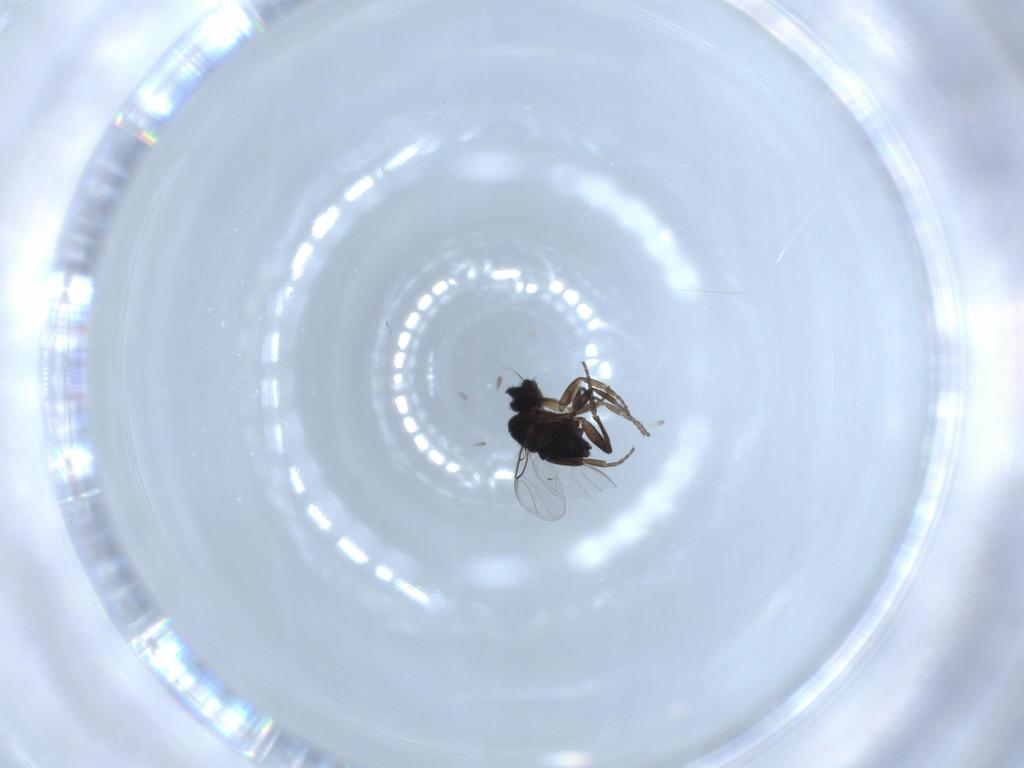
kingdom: Animalia
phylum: Arthropoda
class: Insecta
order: Diptera
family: Phoridae
